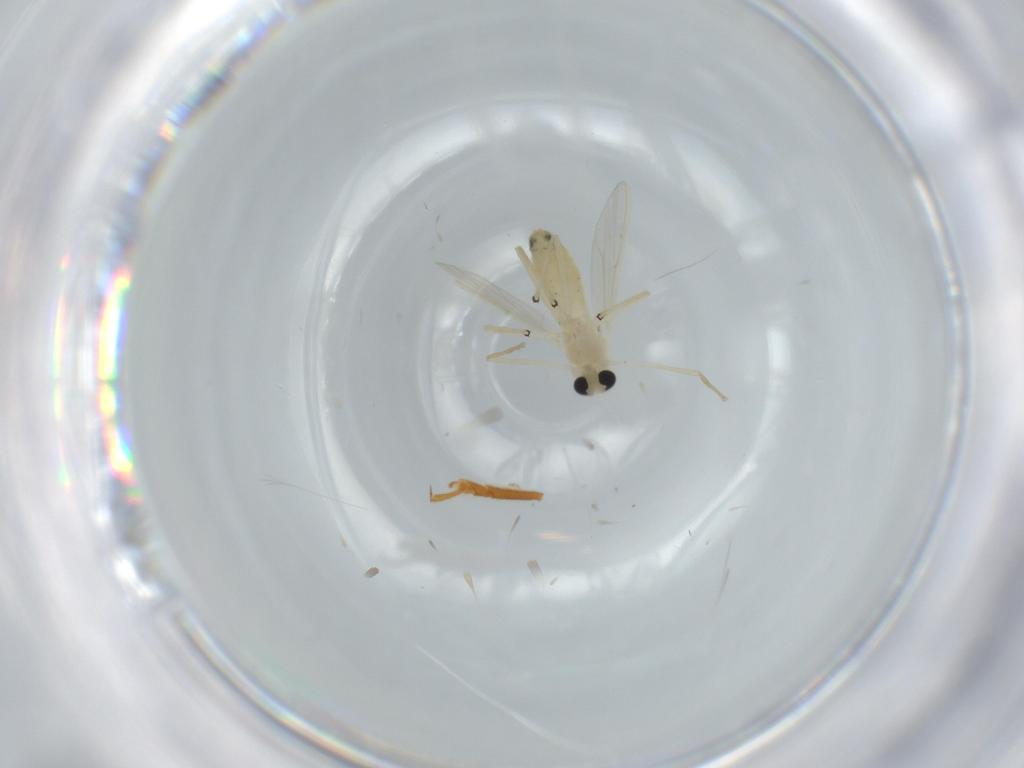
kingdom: Animalia
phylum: Arthropoda
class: Insecta
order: Diptera
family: Chironomidae
